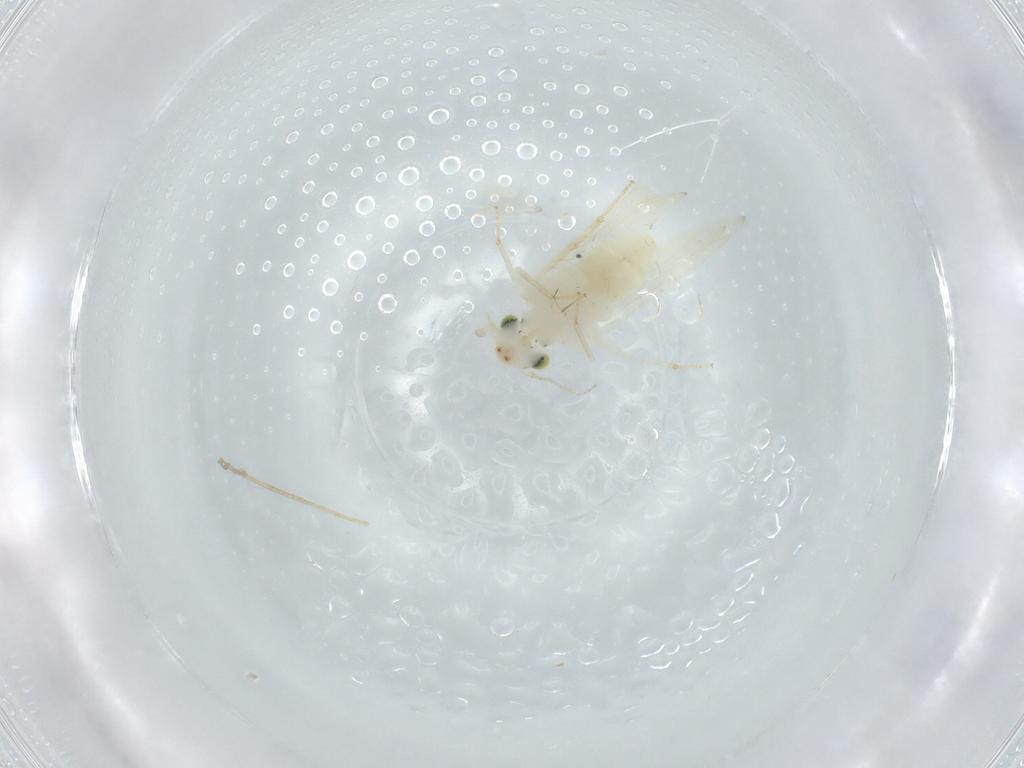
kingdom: Animalia
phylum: Arthropoda
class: Insecta
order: Psocodea
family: Lepidopsocidae
